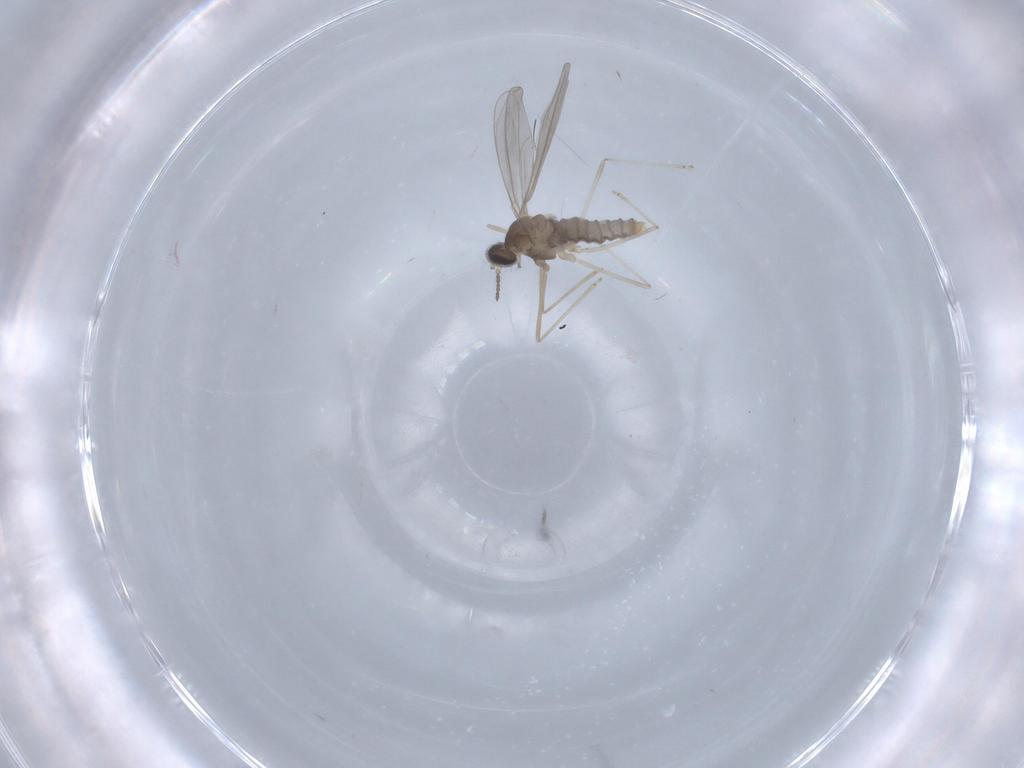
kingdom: Animalia
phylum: Arthropoda
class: Insecta
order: Diptera
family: Cecidomyiidae
